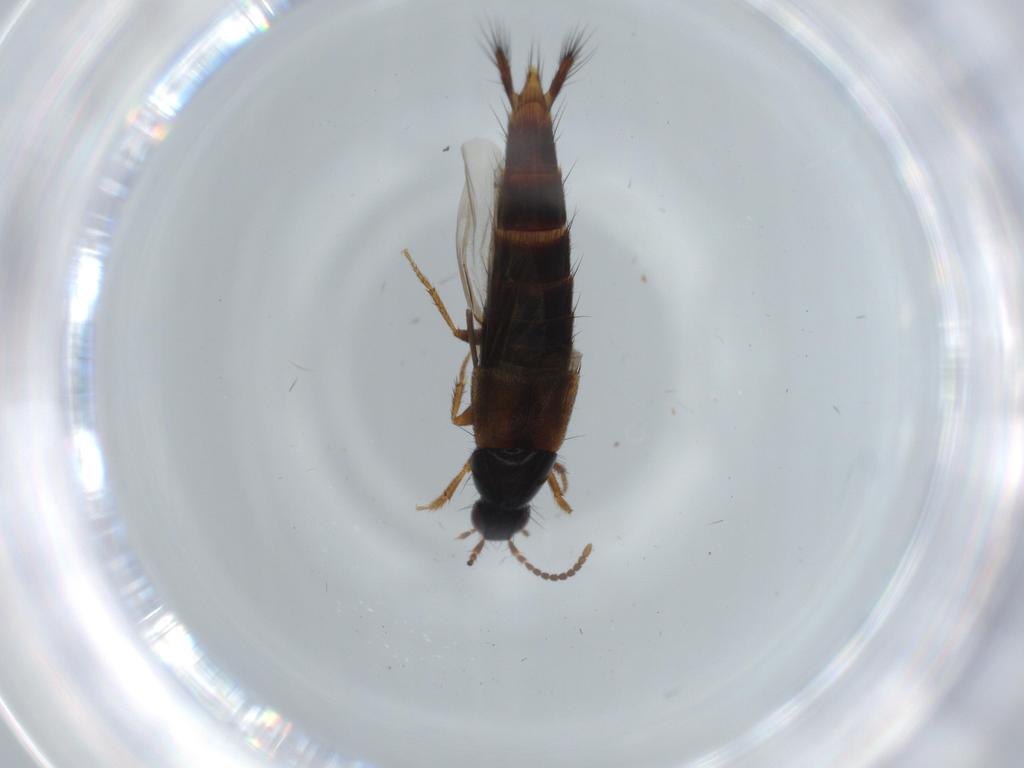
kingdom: Animalia
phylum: Arthropoda
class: Insecta
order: Coleoptera
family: Staphylinidae
